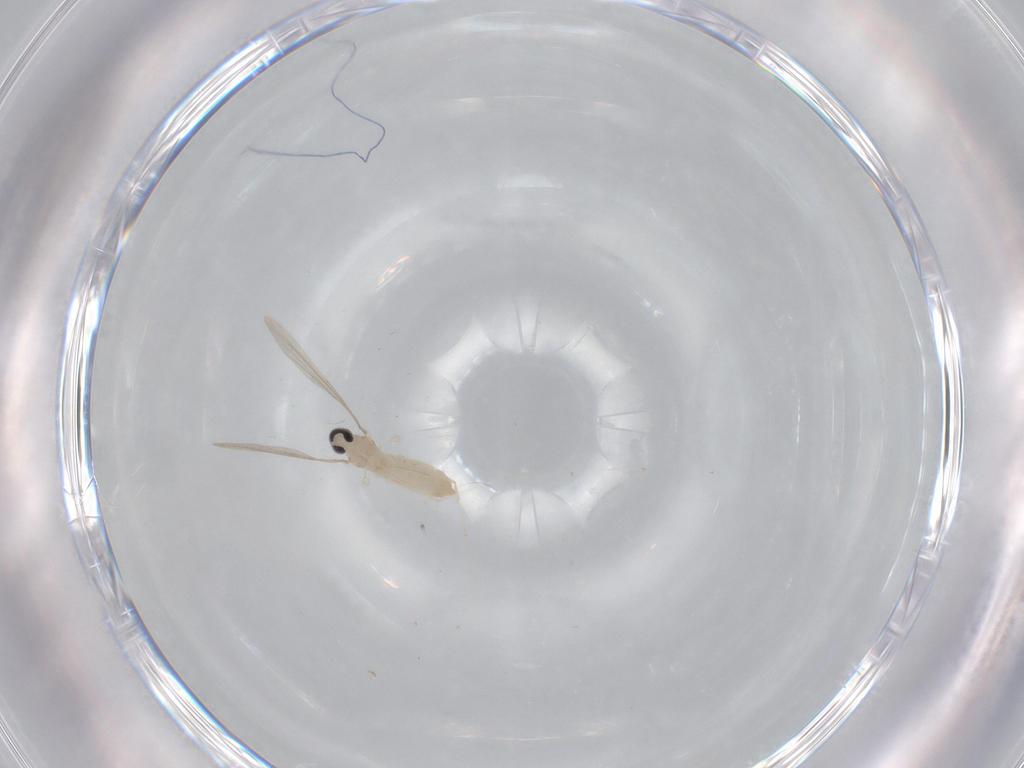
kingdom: Animalia
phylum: Arthropoda
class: Insecta
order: Diptera
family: Cecidomyiidae
